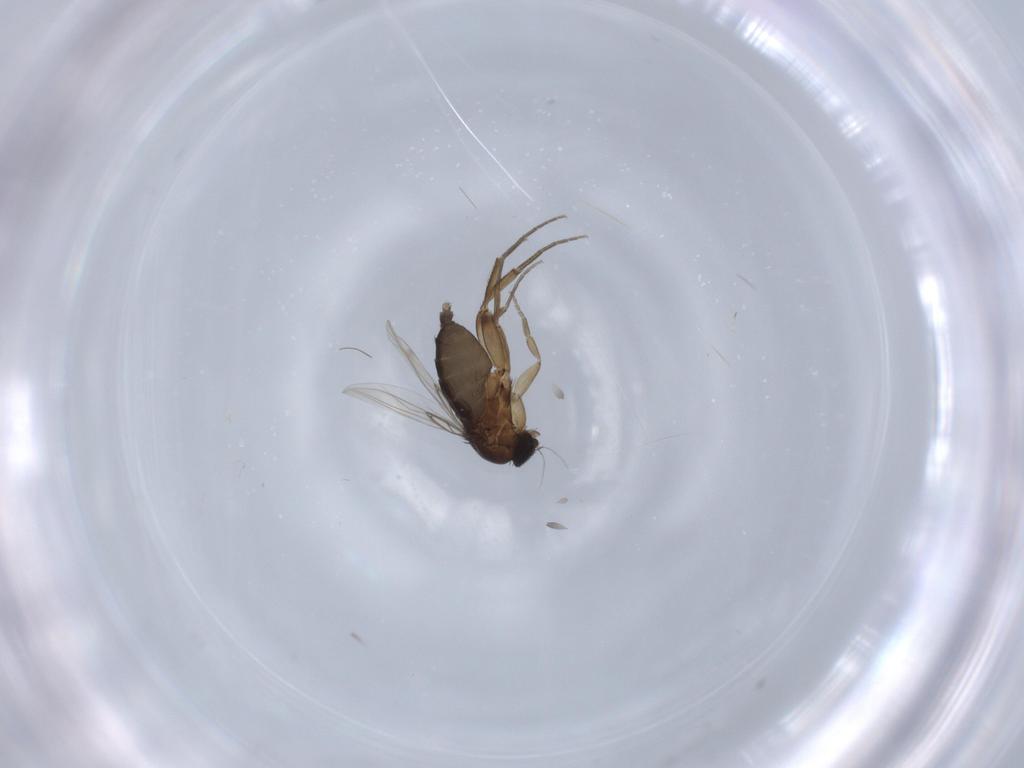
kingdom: Animalia
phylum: Arthropoda
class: Insecta
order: Diptera
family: Phoridae
